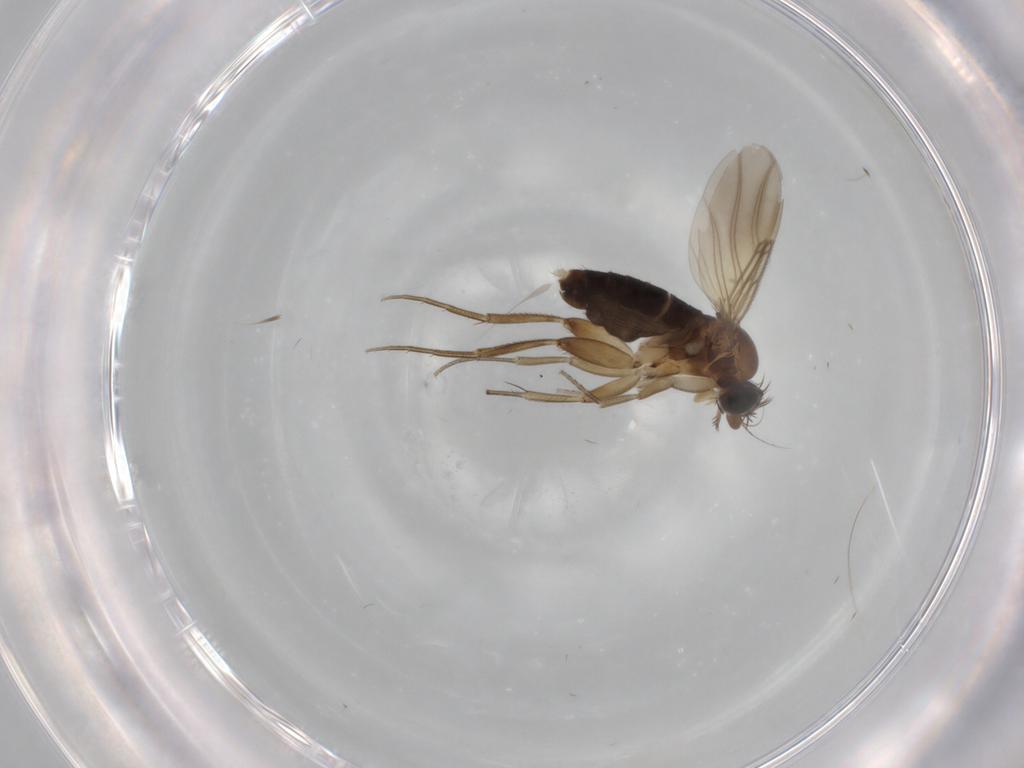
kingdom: Animalia
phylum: Arthropoda
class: Insecta
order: Diptera
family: Phoridae
